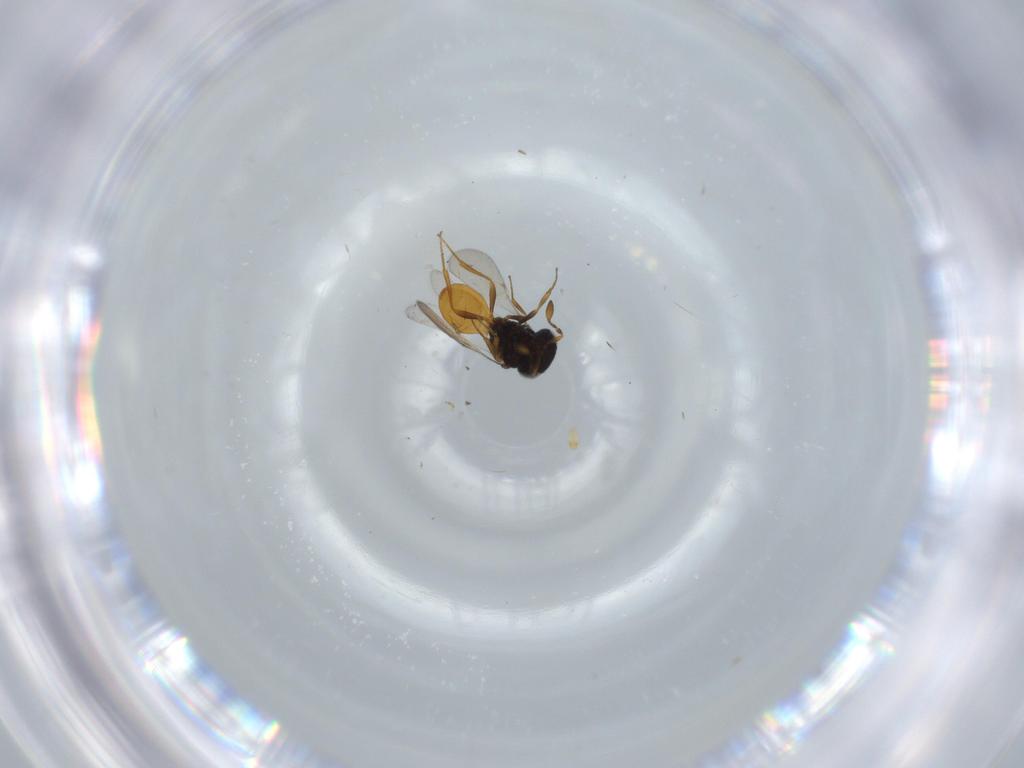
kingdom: Animalia
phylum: Arthropoda
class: Insecta
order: Hymenoptera
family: Scelionidae
